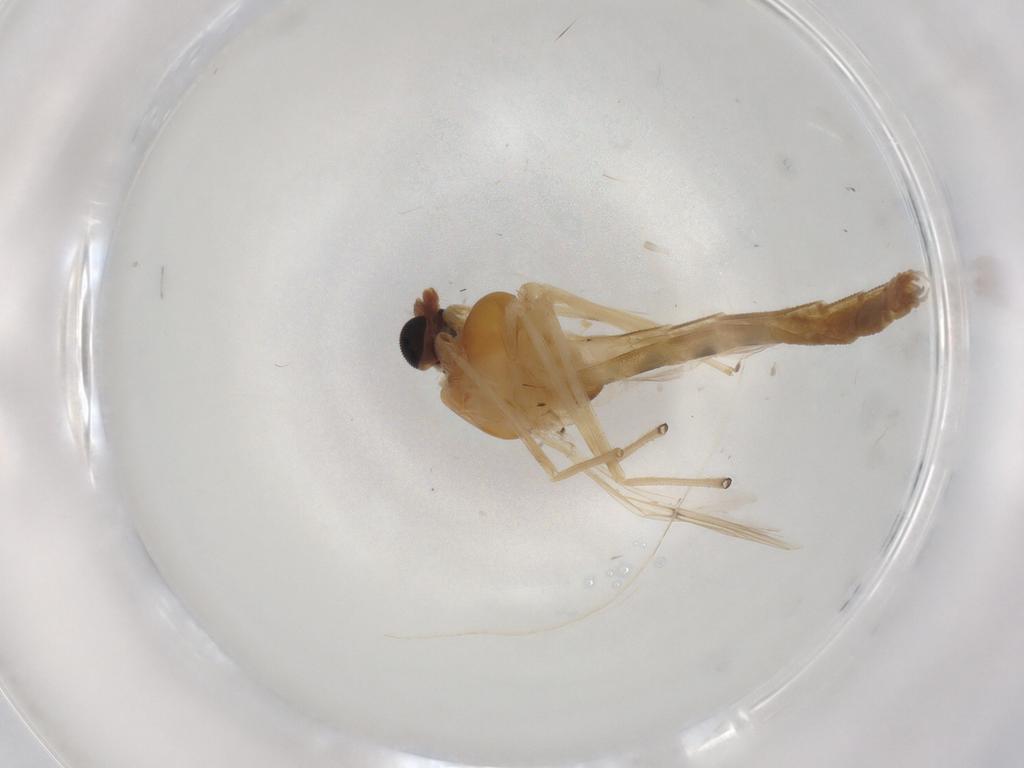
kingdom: Animalia
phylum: Arthropoda
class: Insecta
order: Diptera
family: Chironomidae
